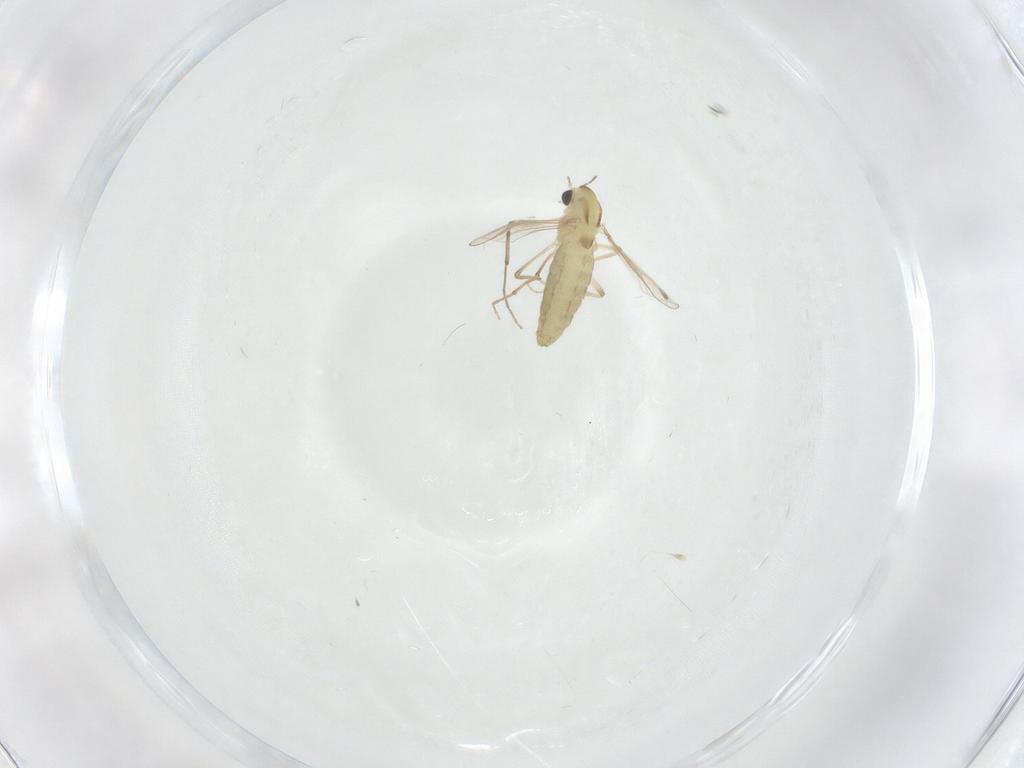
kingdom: Animalia
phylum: Arthropoda
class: Insecta
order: Diptera
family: Chironomidae
